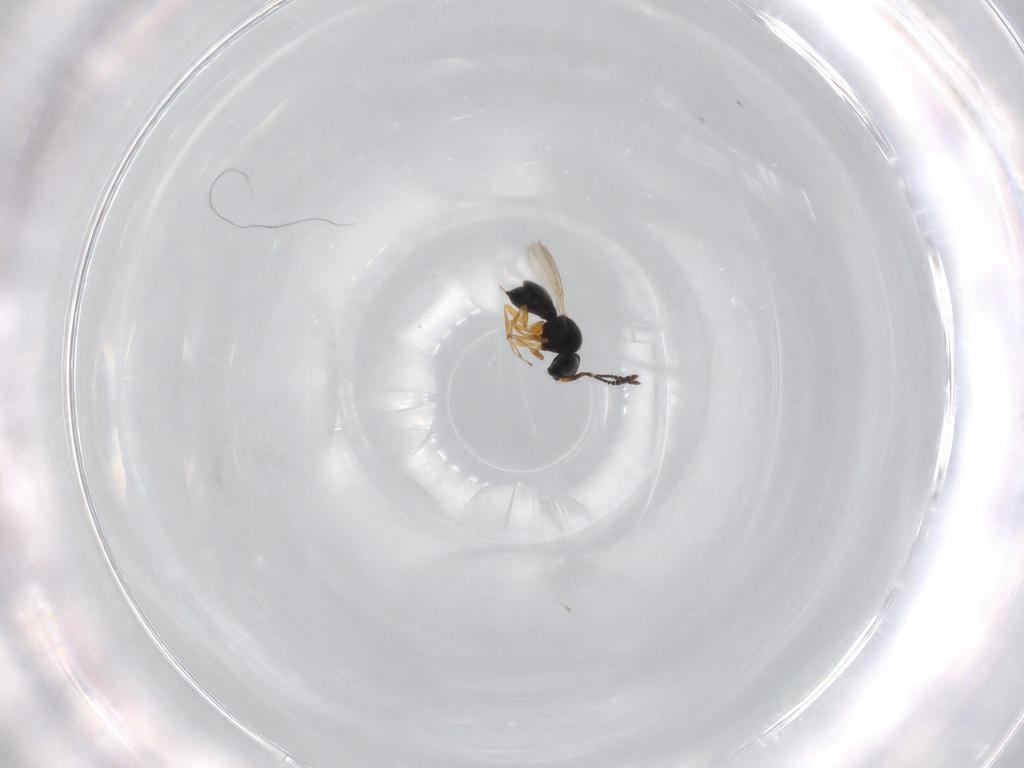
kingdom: Animalia
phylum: Arthropoda
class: Insecta
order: Hymenoptera
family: Scelionidae
